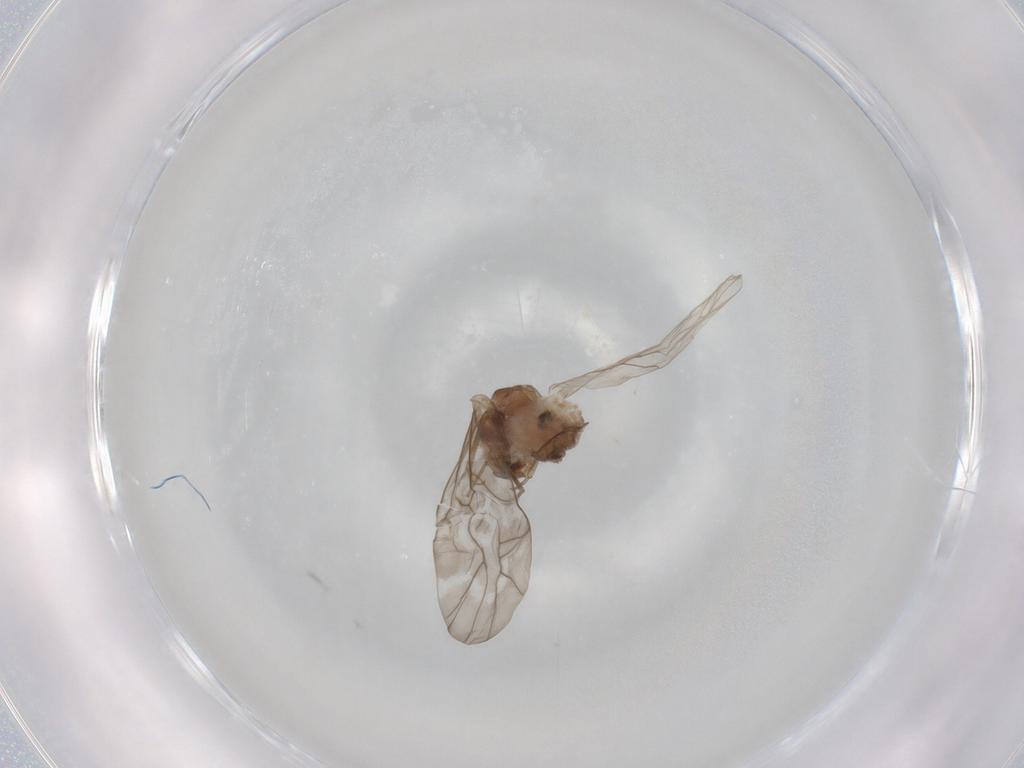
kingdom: Animalia
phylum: Arthropoda
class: Insecta
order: Psocodea
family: Peripsocidae
